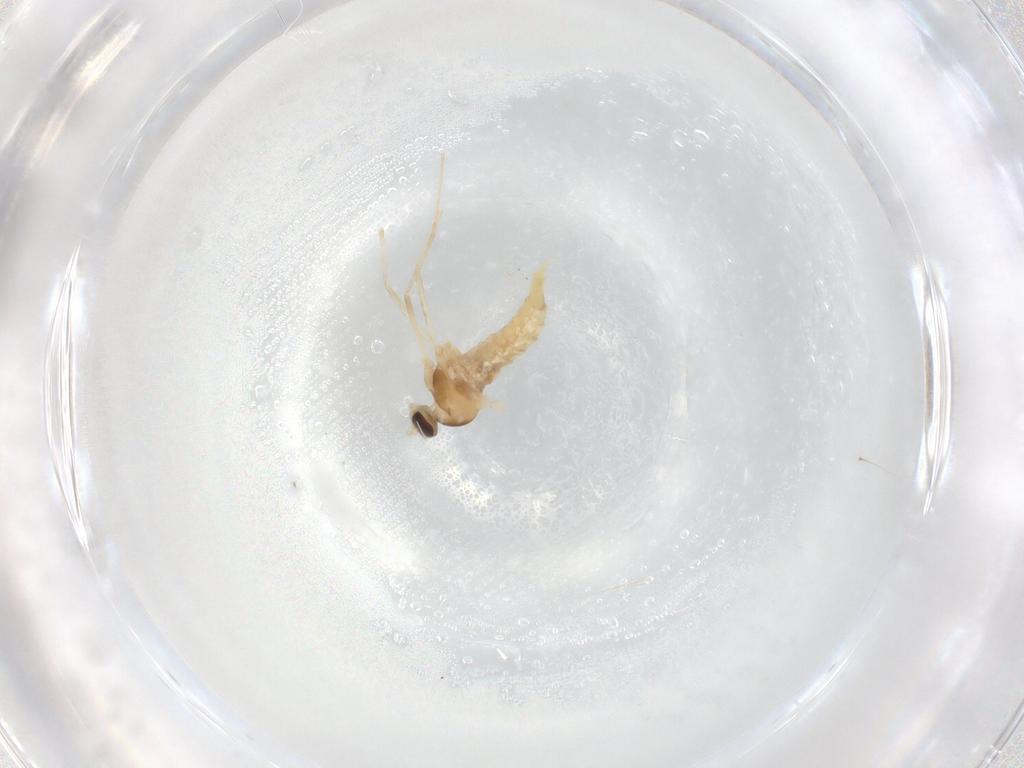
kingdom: Animalia
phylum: Arthropoda
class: Insecta
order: Diptera
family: Cecidomyiidae
